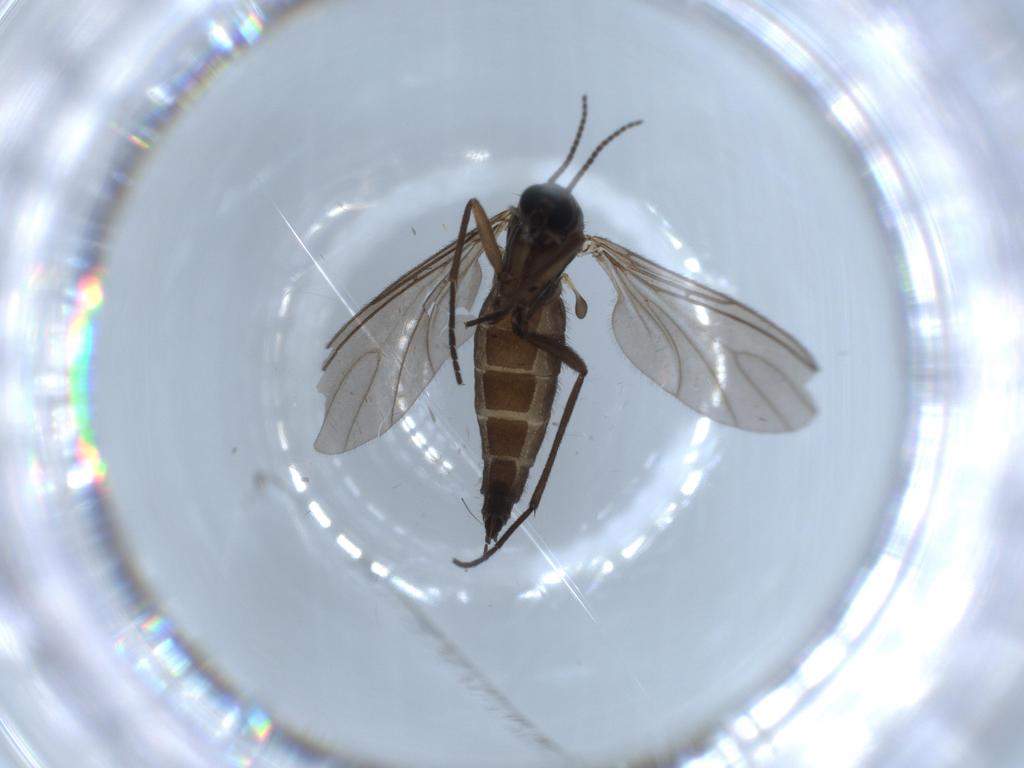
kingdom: Animalia
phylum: Arthropoda
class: Insecta
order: Diptera
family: Sciaridae
